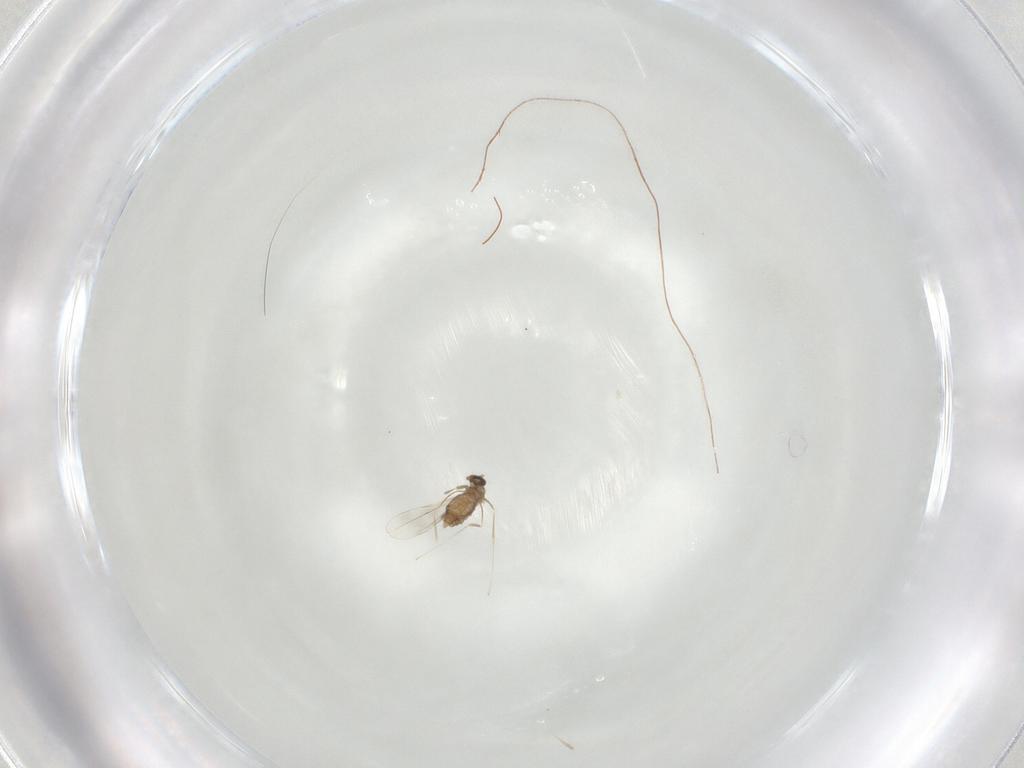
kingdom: Animalia
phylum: Arthropoda
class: Insecta
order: Diptera
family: Cecidomyiidae
